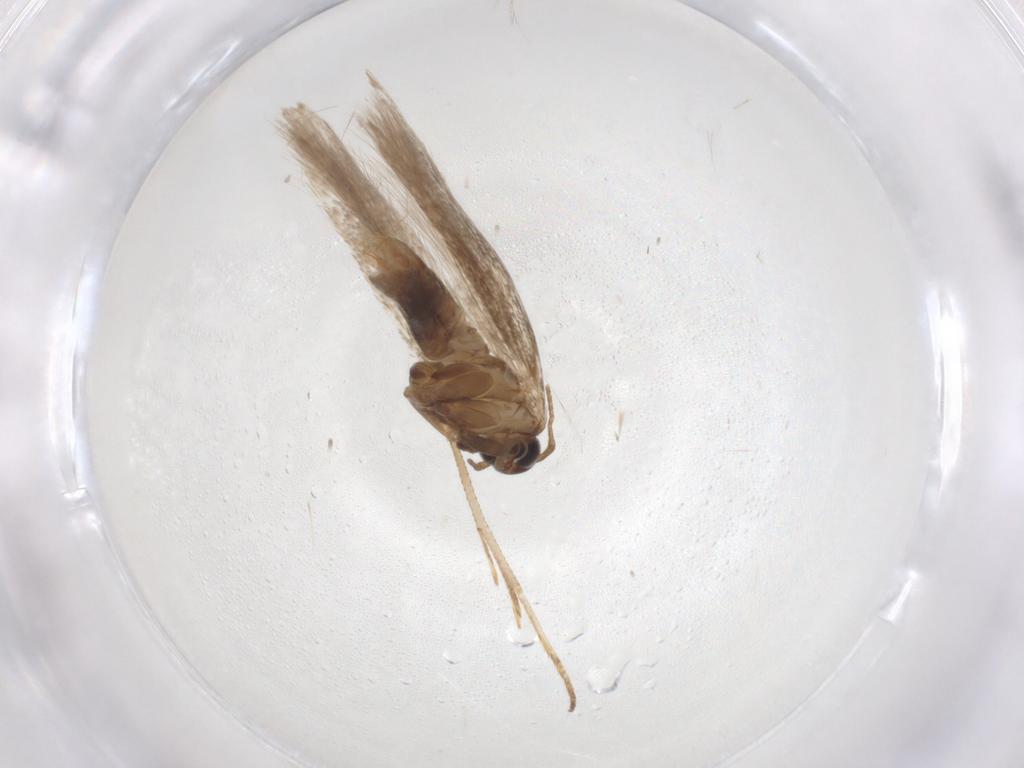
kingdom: Animalia
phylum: Arthropoda
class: Insecta
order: Lepidoptera
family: Gelechiidae
